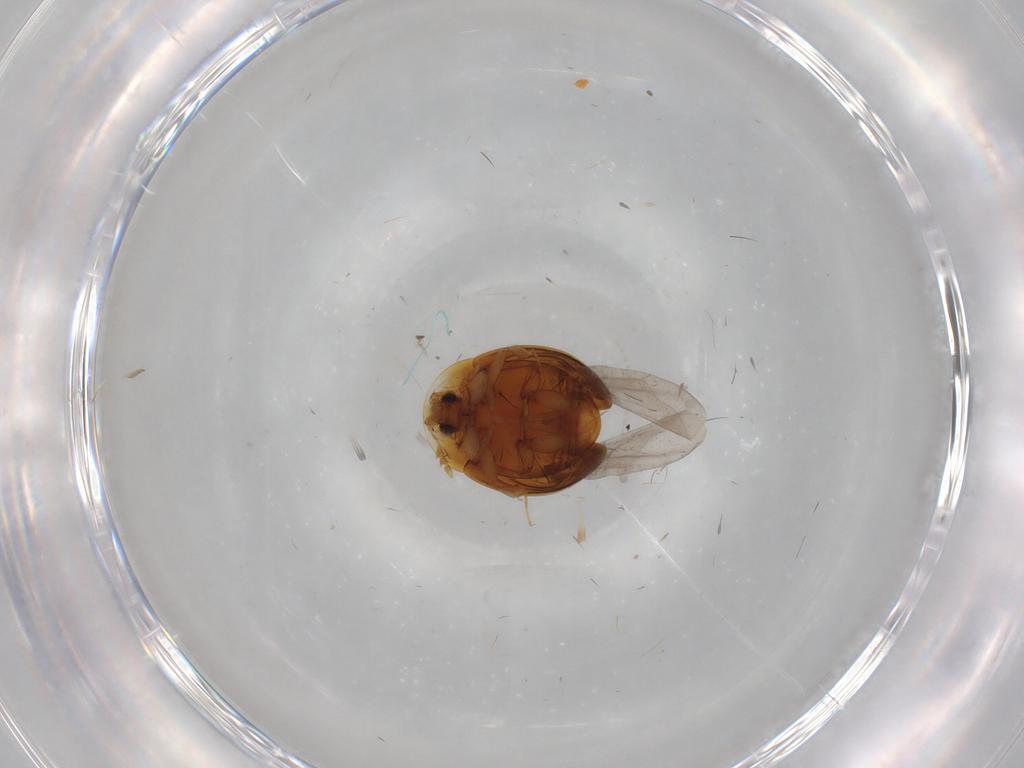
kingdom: Animalia
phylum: Arthropoda
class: Insecta
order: Coleoptera
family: Corylophidae
